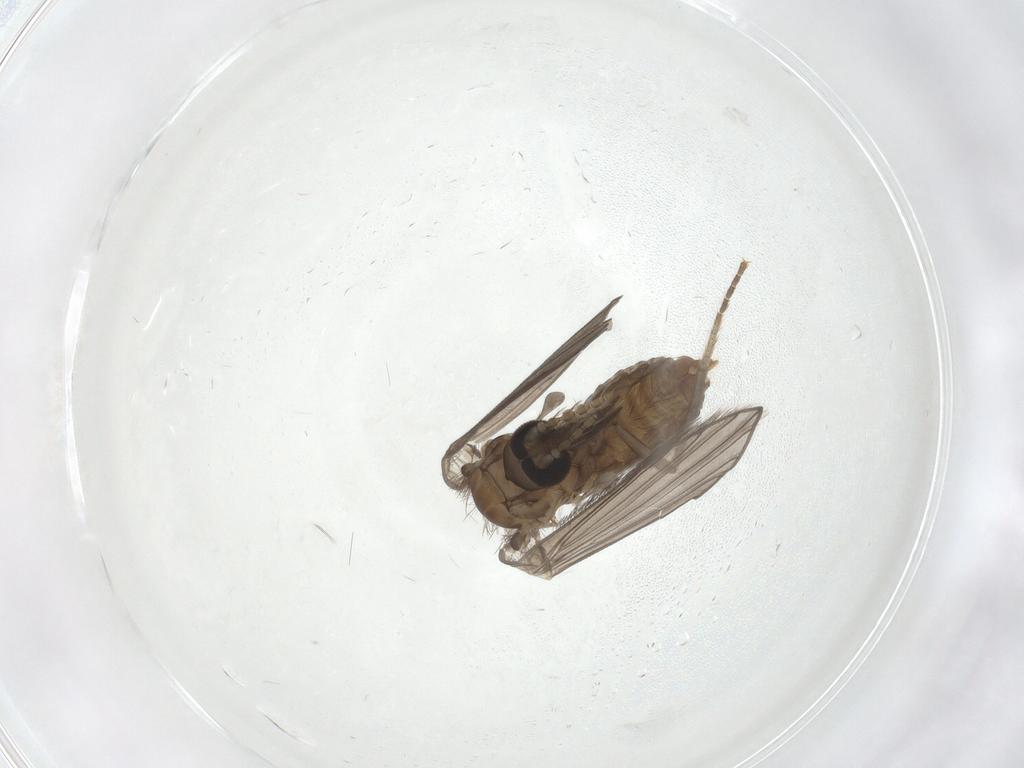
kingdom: Animalia
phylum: Arthropoda
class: Insecta
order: Diptera
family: Psychodidae
